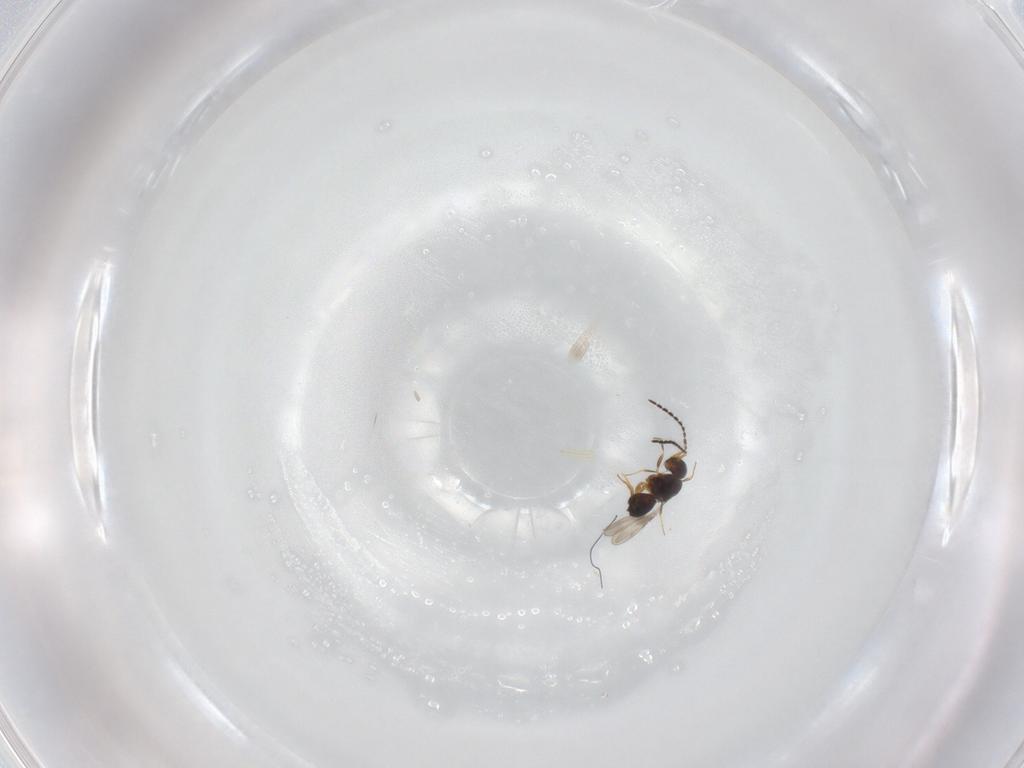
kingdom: Animalia
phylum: Arthropoda
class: Insecta
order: Hymenoptera
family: Ceraphronidae
